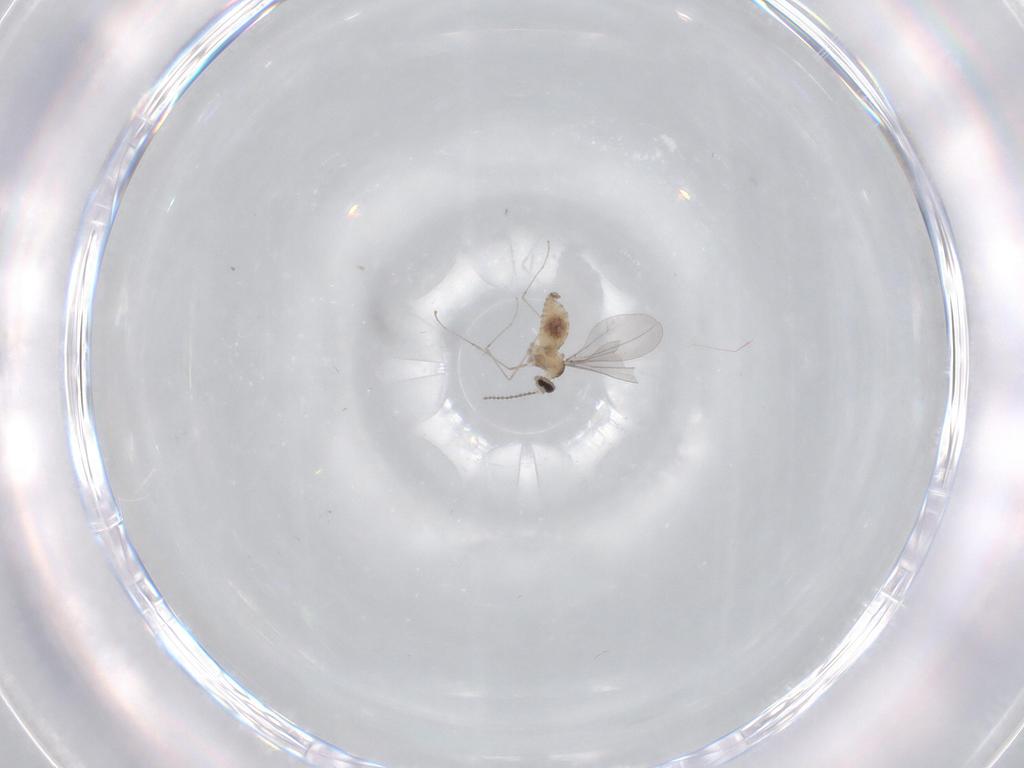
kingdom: Animalia
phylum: Arthropoda
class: Insecta
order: Diptera
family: Cecidomyiidae
